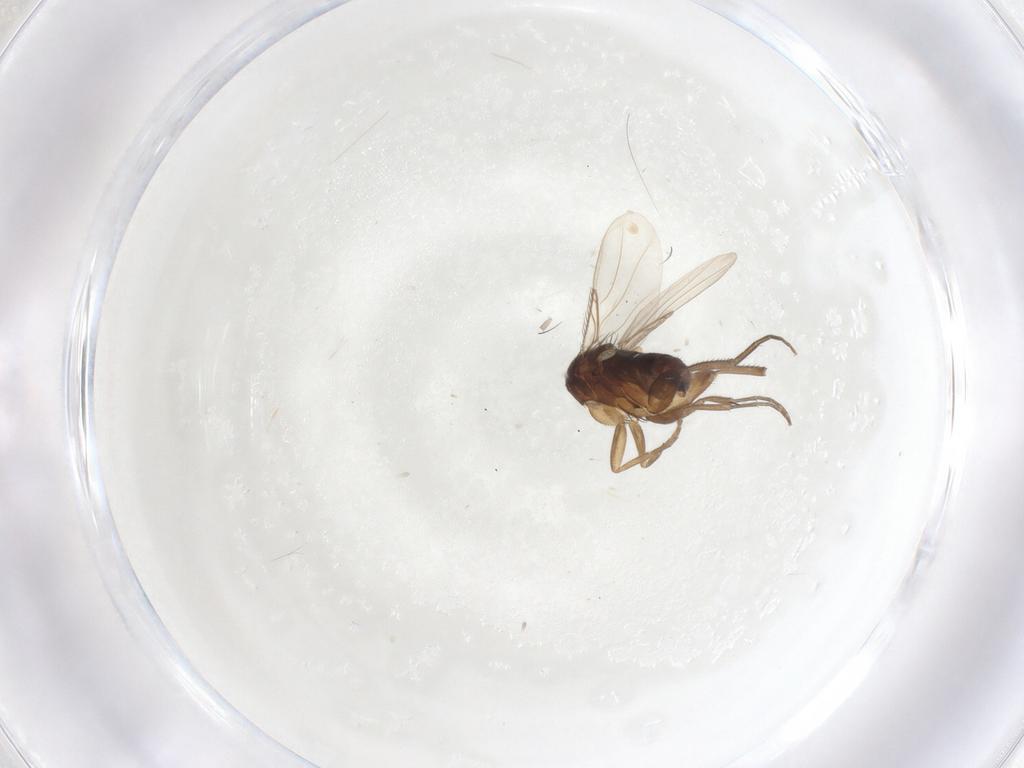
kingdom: Animalia
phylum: Arthropoda
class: Insecta
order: Diptera
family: Phoridae
